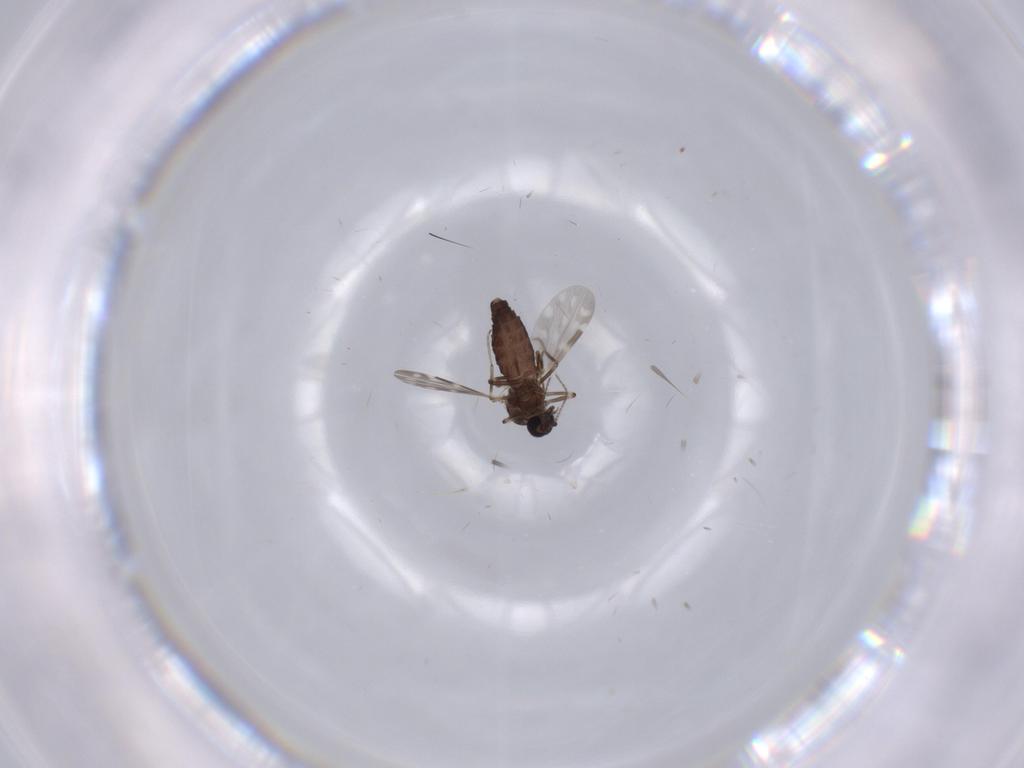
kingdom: Animalia
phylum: Arthropoda
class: Insecta
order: Diptera
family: Ceratopogonidae
